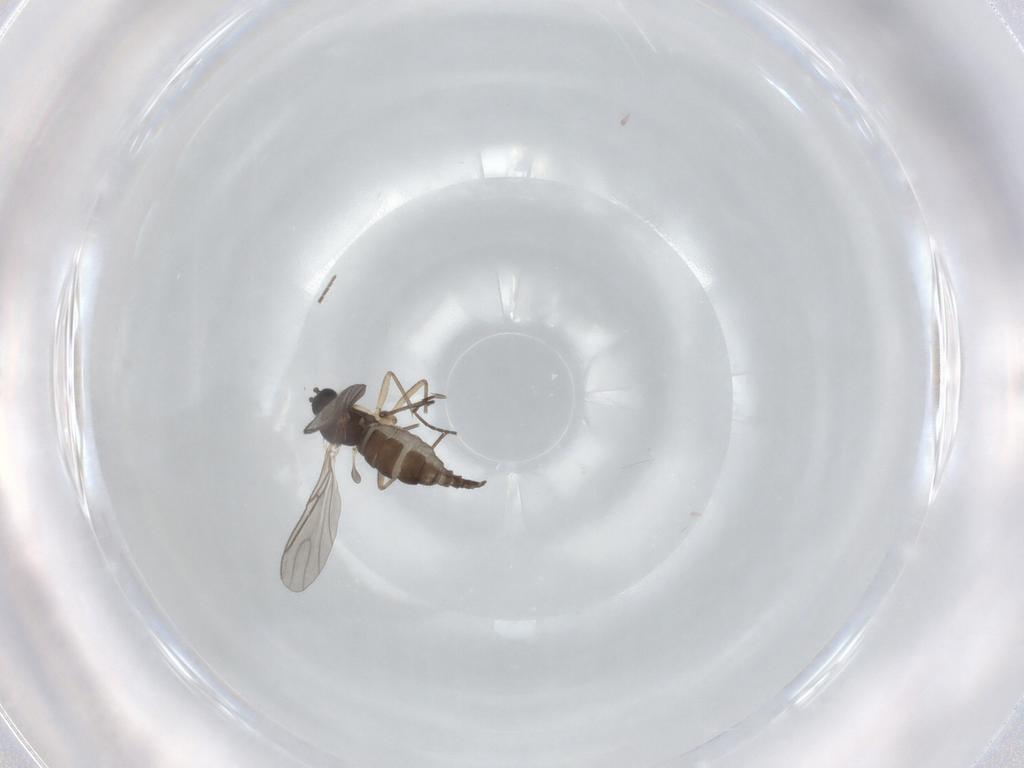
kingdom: Animalia
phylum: Arthropoda
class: Insecta
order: Diptera
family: Sciaridae
